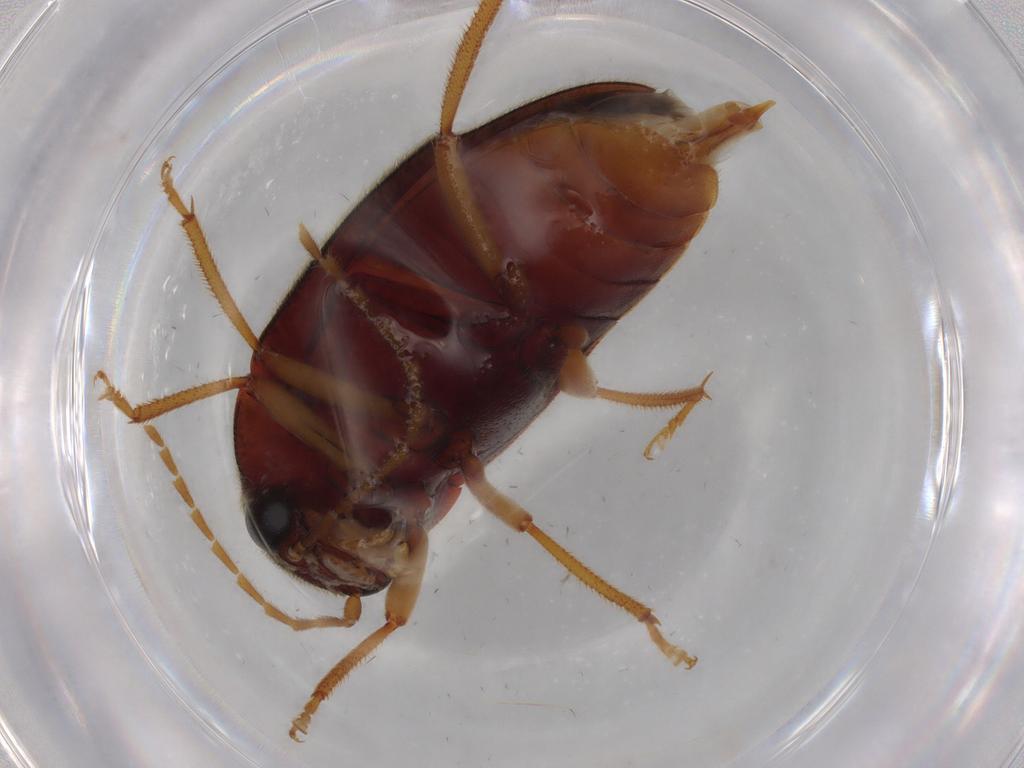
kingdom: Animalia
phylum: Arthropoda
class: Insecta
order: Coleoptera
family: Ptilodactylidae
